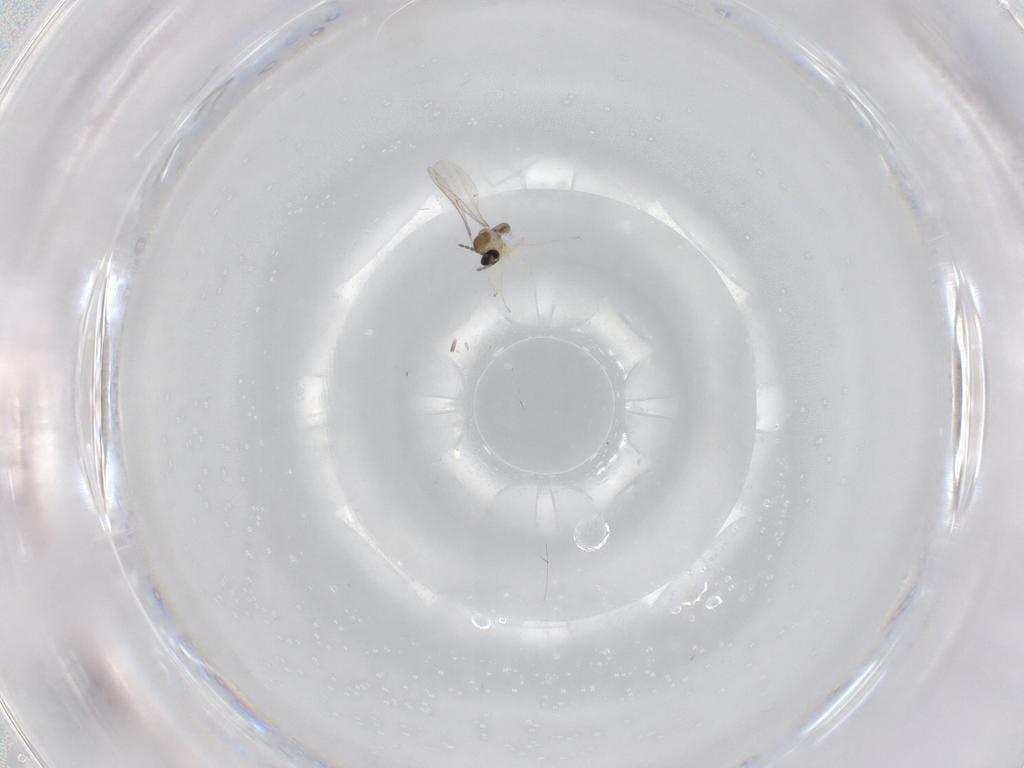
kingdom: Animalia
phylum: Arthropoda
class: Insecta
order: Diptera
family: Cecidomyiidae
